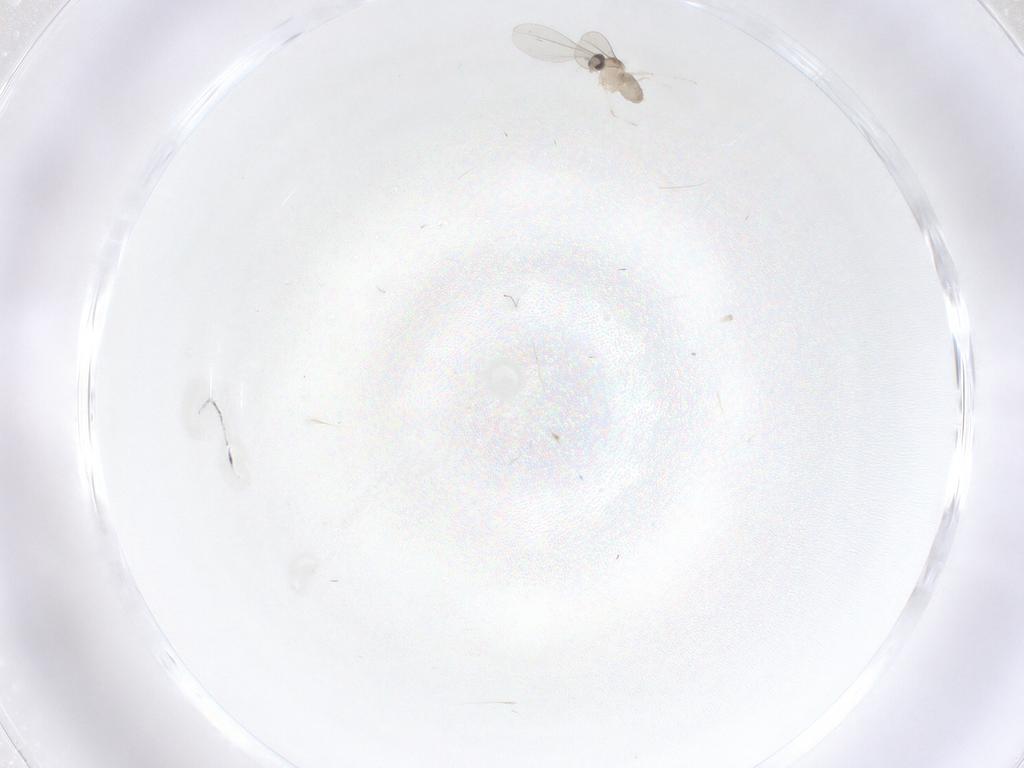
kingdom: Animalia
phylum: Arthropoda
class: Insecta
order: Diptera
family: Cecidomyiidae
